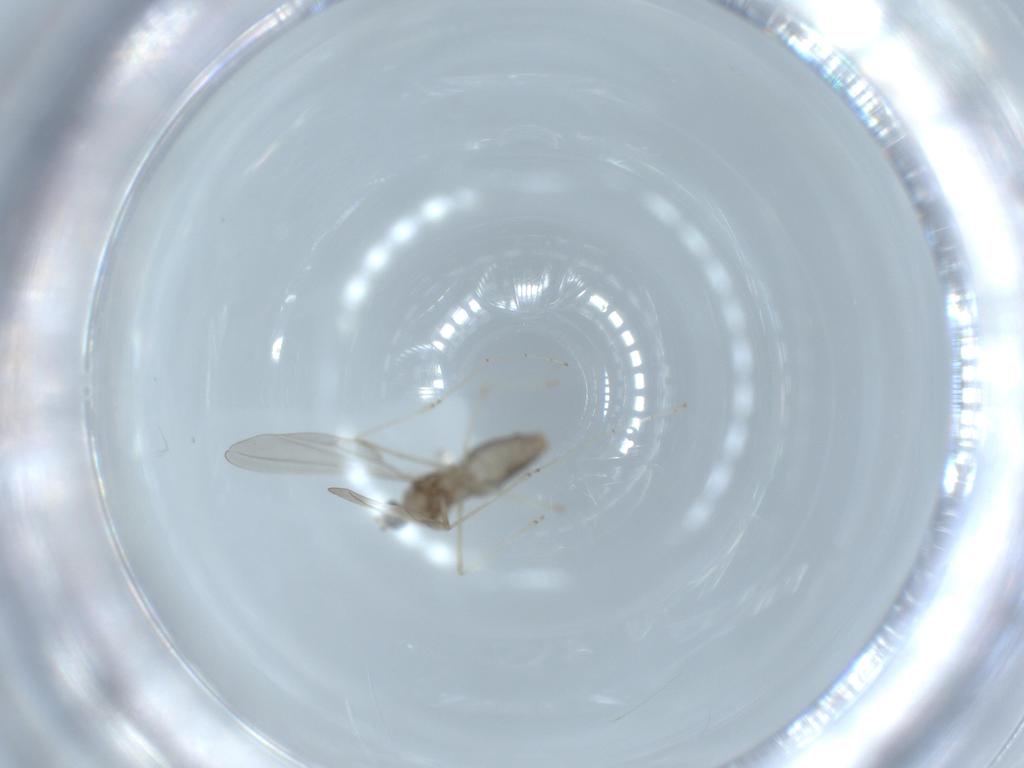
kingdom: Animalia
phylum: Arthropoda
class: Insecta
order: Diptera
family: Cecidomyiidae
